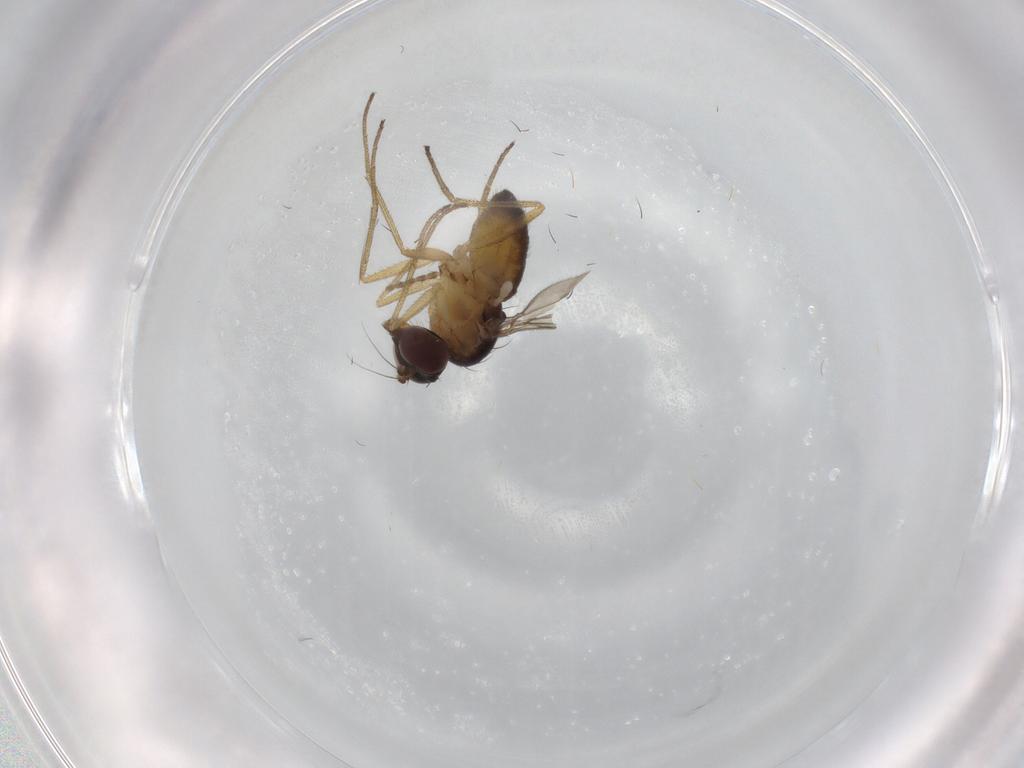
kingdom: Animalia
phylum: Arthropoda
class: Insecta
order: Diptera
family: Dolichopodidae
